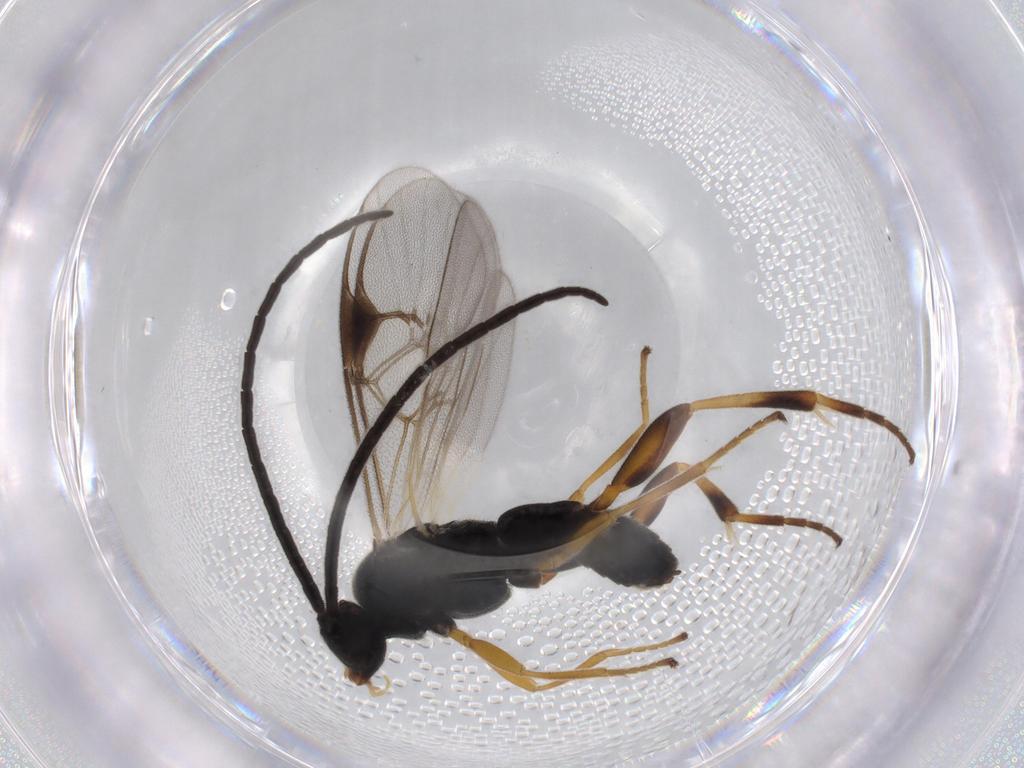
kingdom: Animalia
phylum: Arthropoda
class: Insecta
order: Hymenoptera
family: Braconidae
